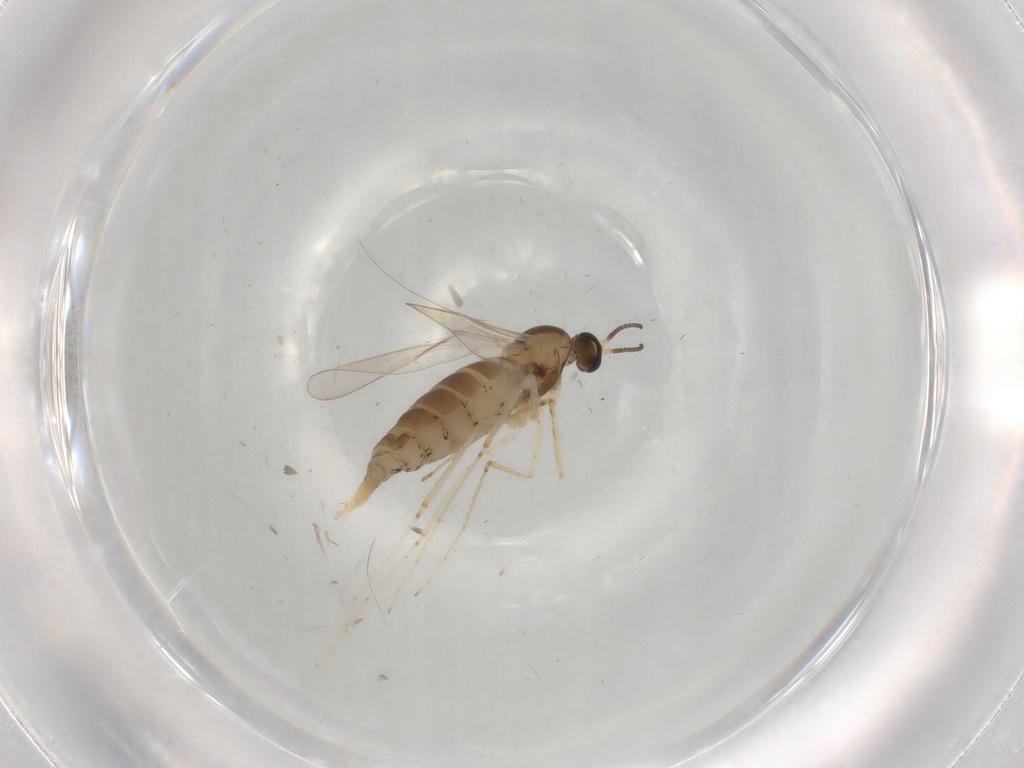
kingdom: Animalia
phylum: Arthropoda
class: Insecta
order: Diptera
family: Cecidomyiidae
